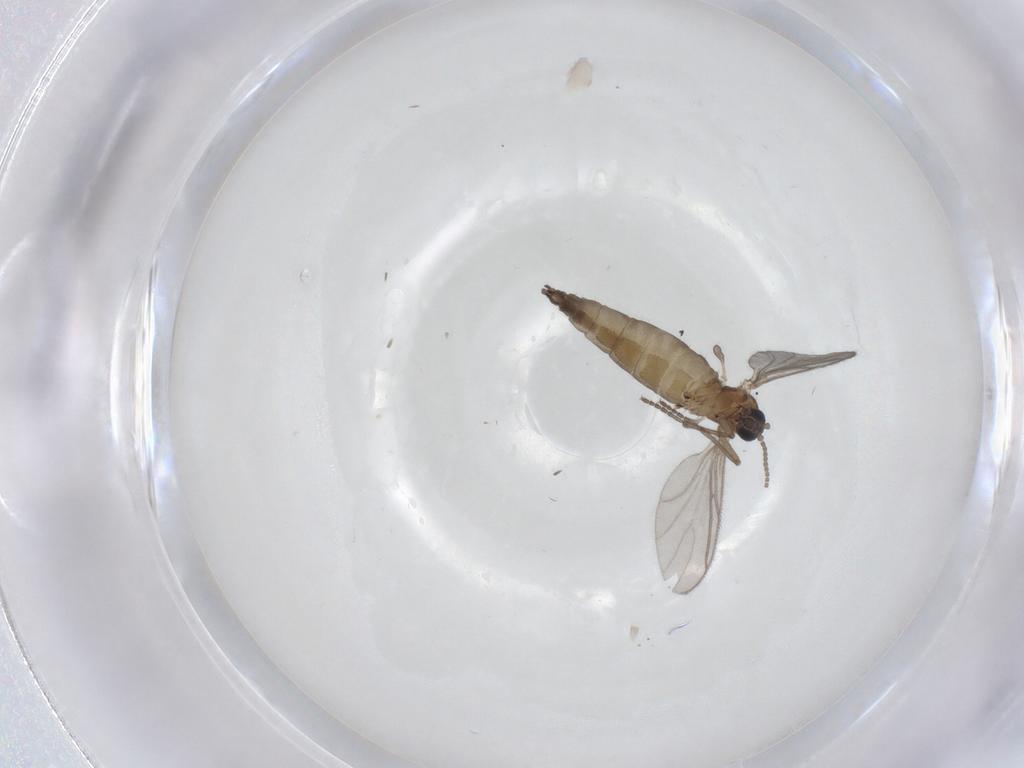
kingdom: Animalia
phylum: Arthropoda
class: Insecta
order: Diptera
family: Sciaridae
